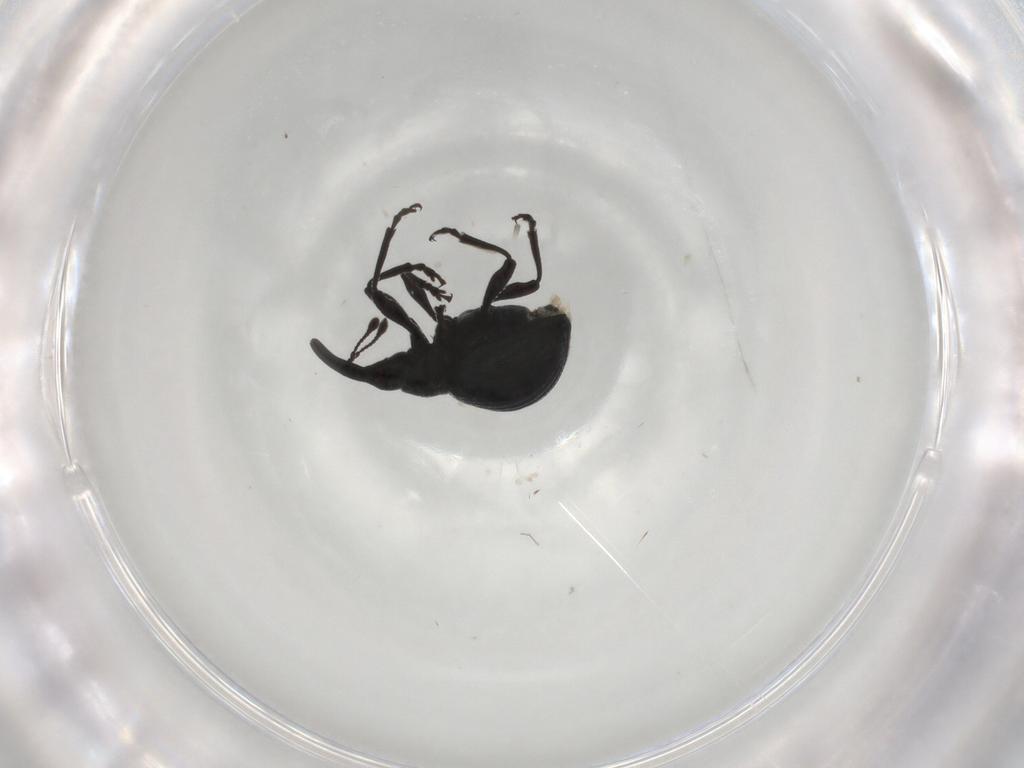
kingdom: Animalia
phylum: Arthropoda
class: Insecta
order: Coleoptera
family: Brentidae
